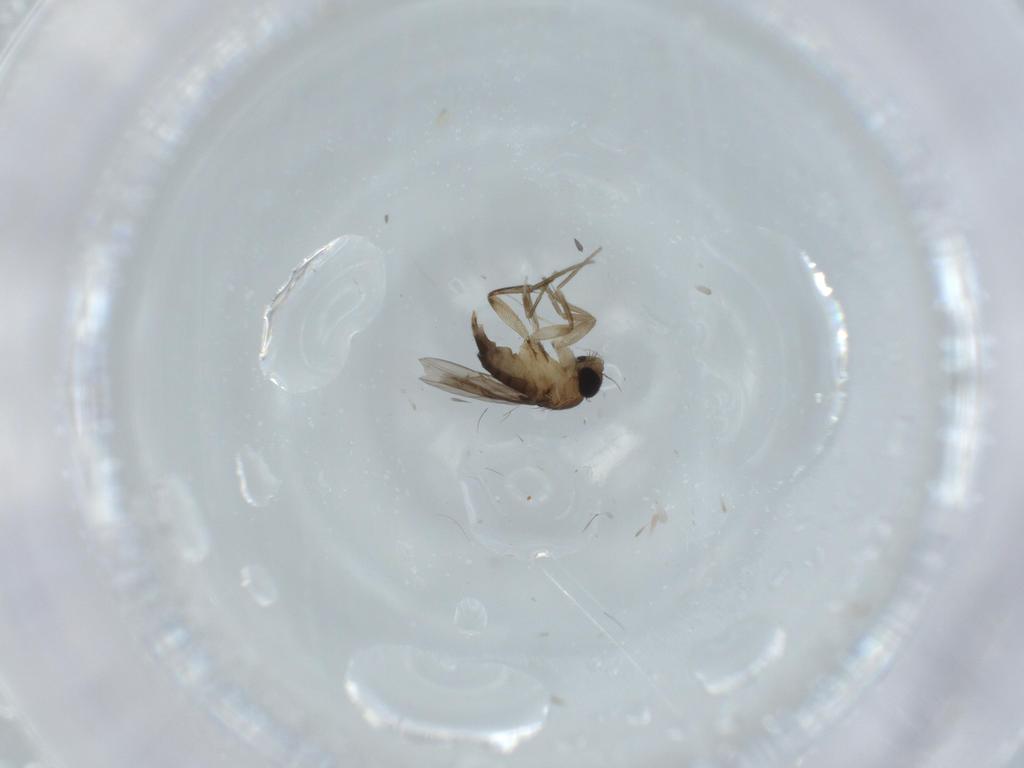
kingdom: Animalia
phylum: Arthropoda
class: Insecta
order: Diptera
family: Phoridae
